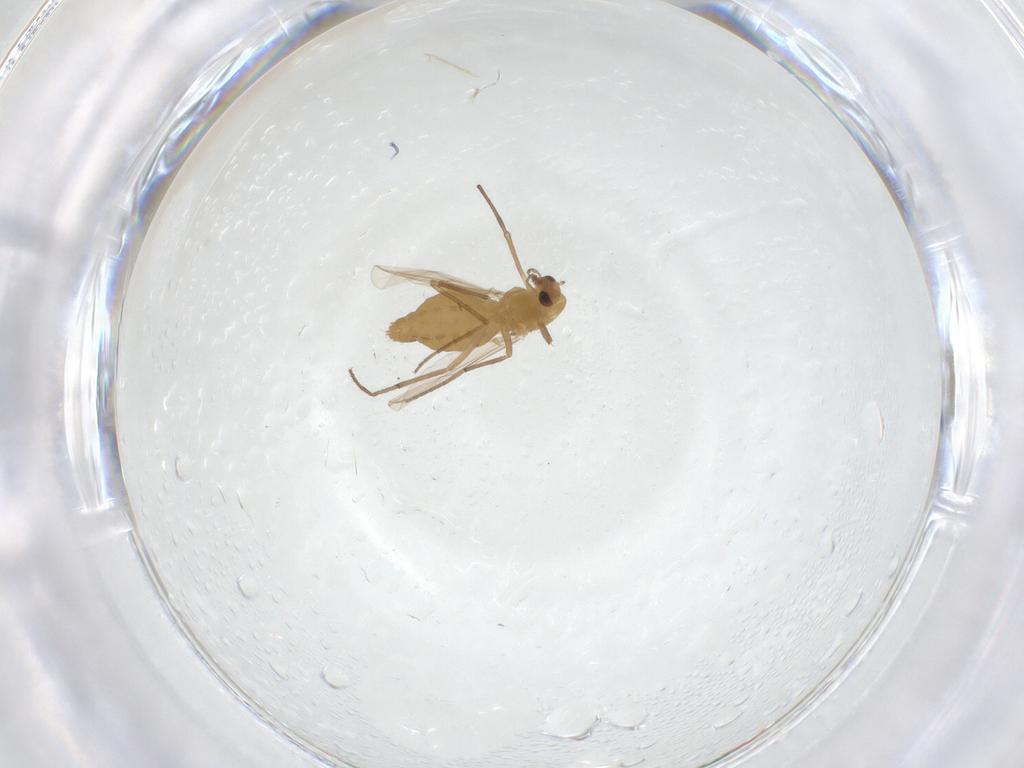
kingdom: Animalia
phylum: Arthropoda
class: Insecta
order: Diptera
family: Chironomidae
